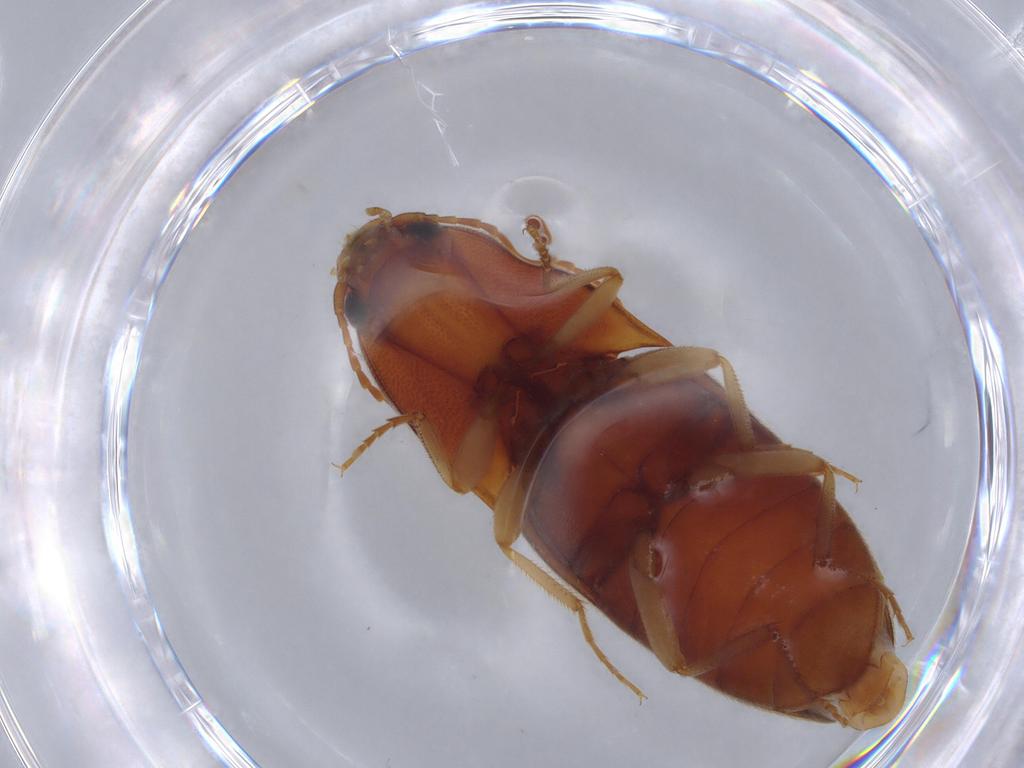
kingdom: Animalia
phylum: Arthropoda
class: Insecta
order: Coleoptera
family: Elateridae
